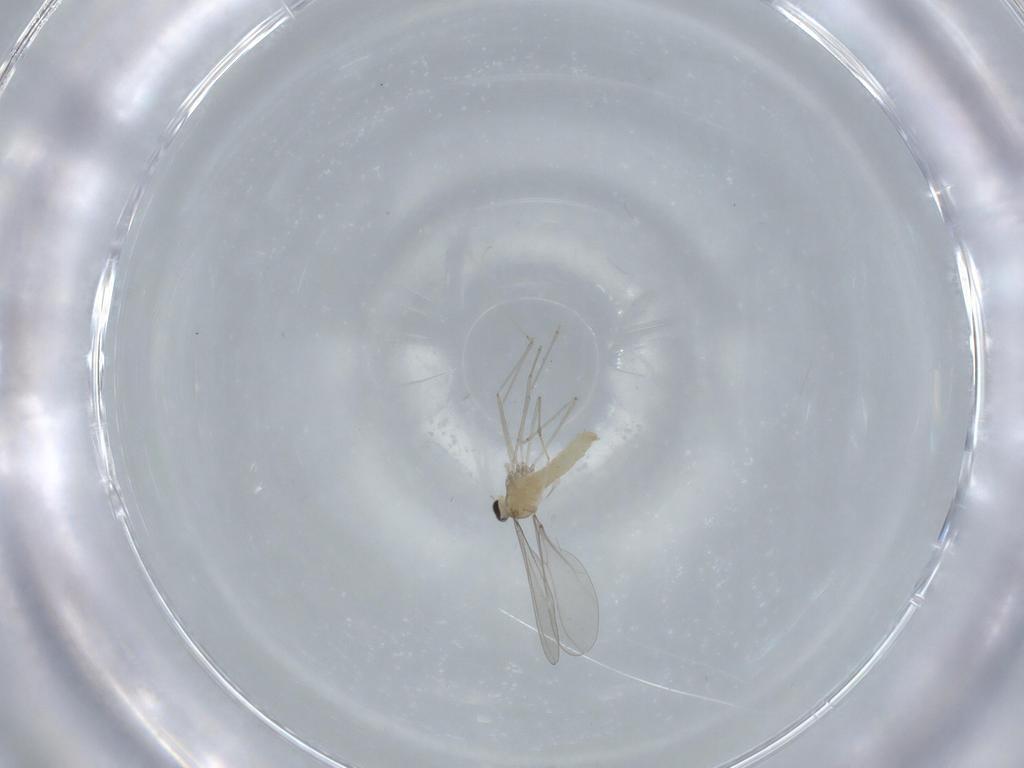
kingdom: Animalia
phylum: Arthropoda
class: Insecta
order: Diptera
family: Cecidomyiidae
